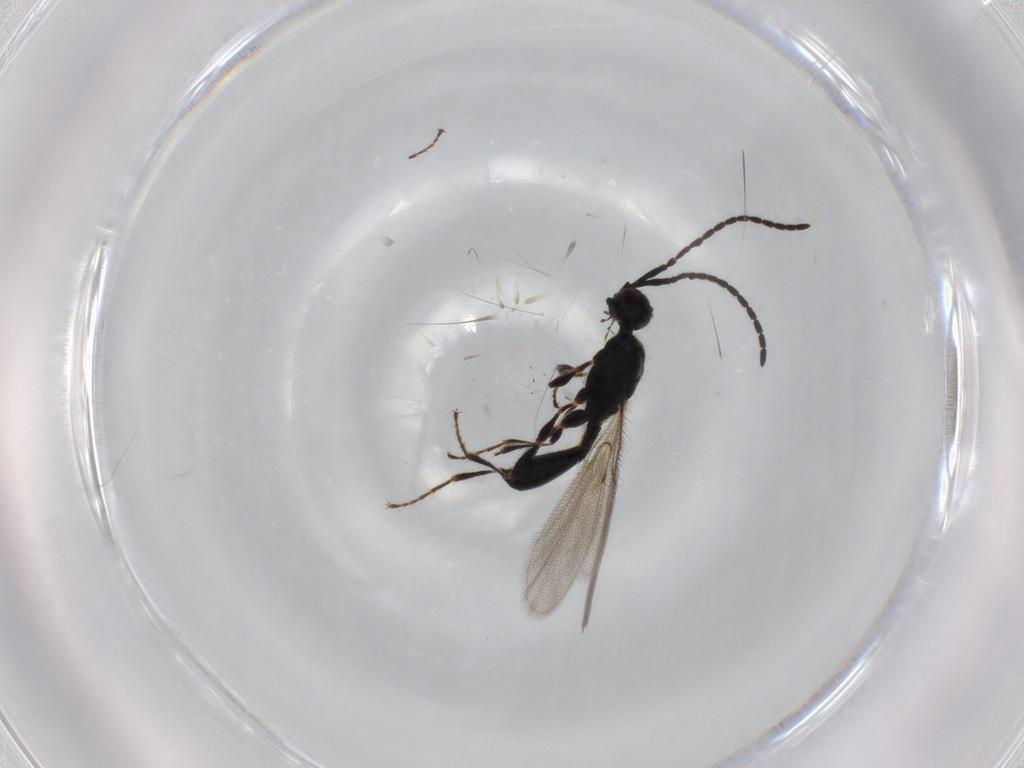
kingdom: Animalia
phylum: Arthropoda
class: Insecta
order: Hymenoptera
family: Diapriidae
